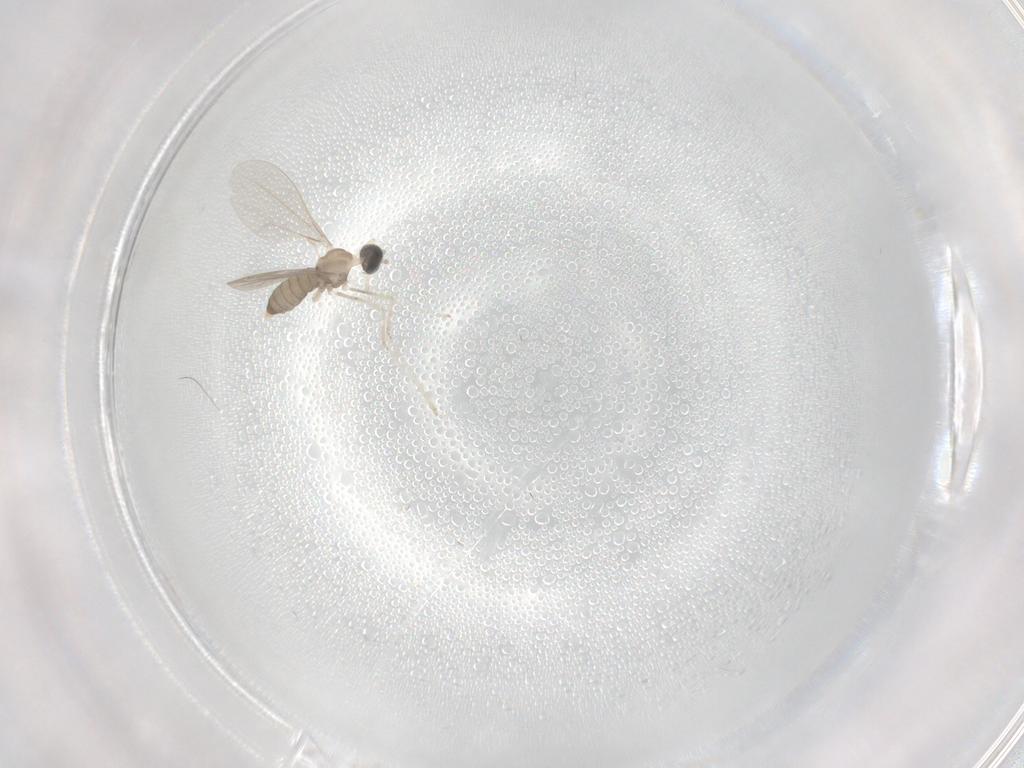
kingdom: Animalia
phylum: Arthropoda
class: Insecta
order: Diptera
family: Cecidomyiidae
